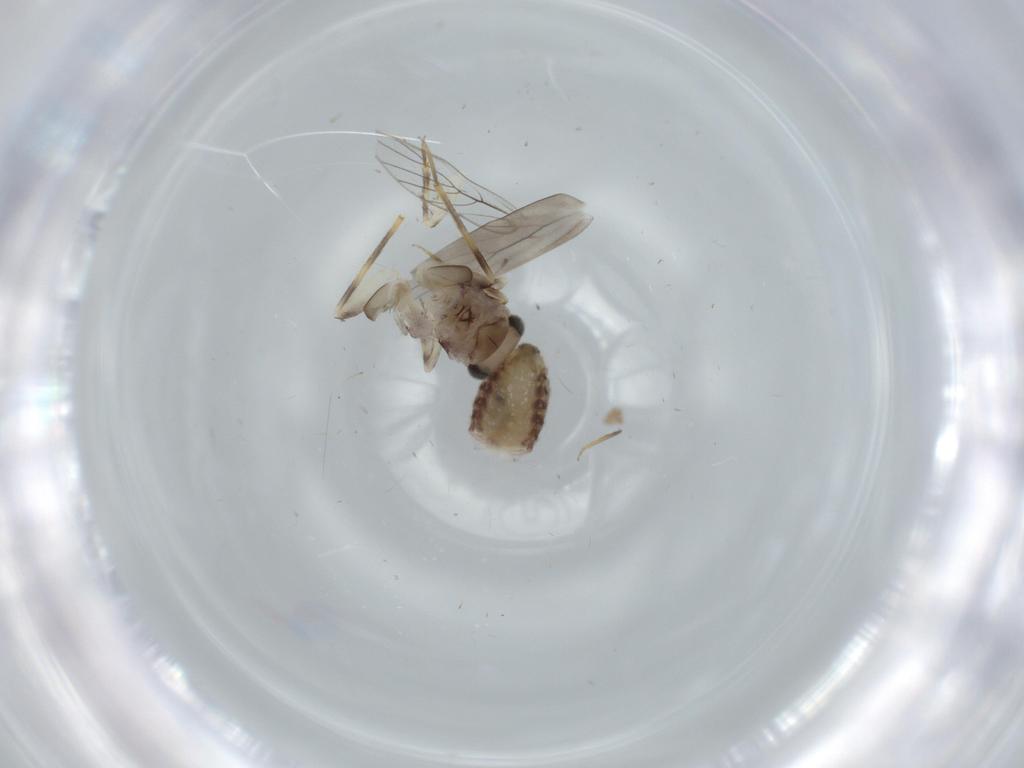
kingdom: Animalia
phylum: Arthropoda
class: Insecta
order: Psocodea
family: Lepidopsocidae
